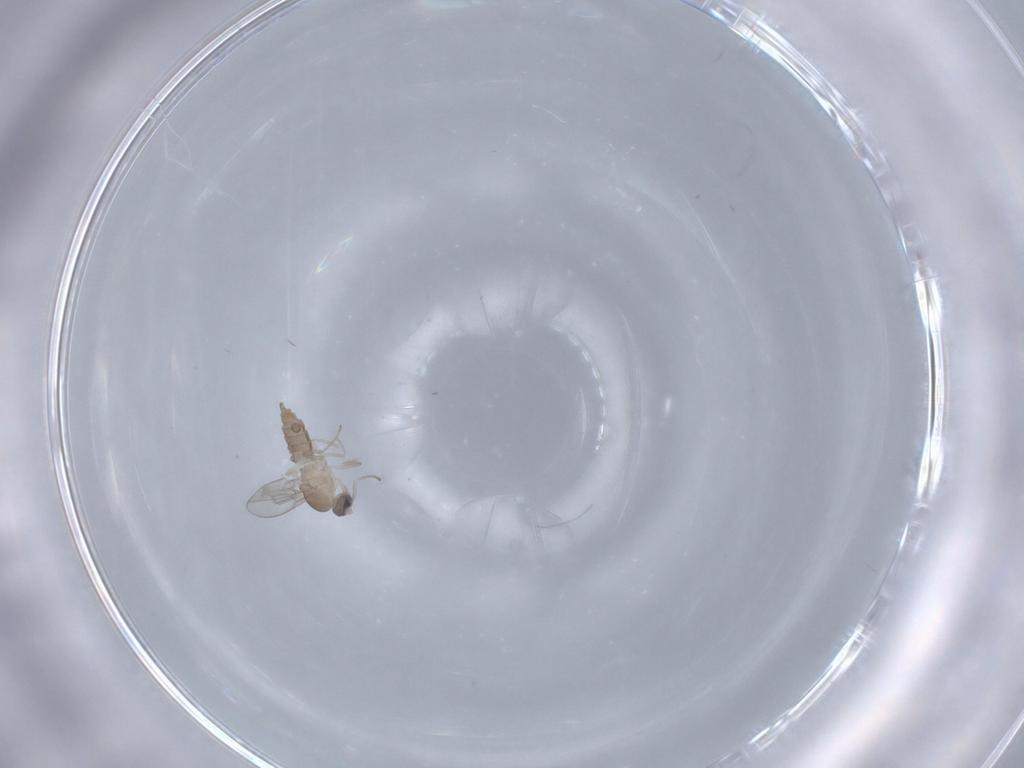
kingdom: Animalia
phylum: Arthropoda
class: Insecta
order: Diptera
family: Cecidomyiidae
